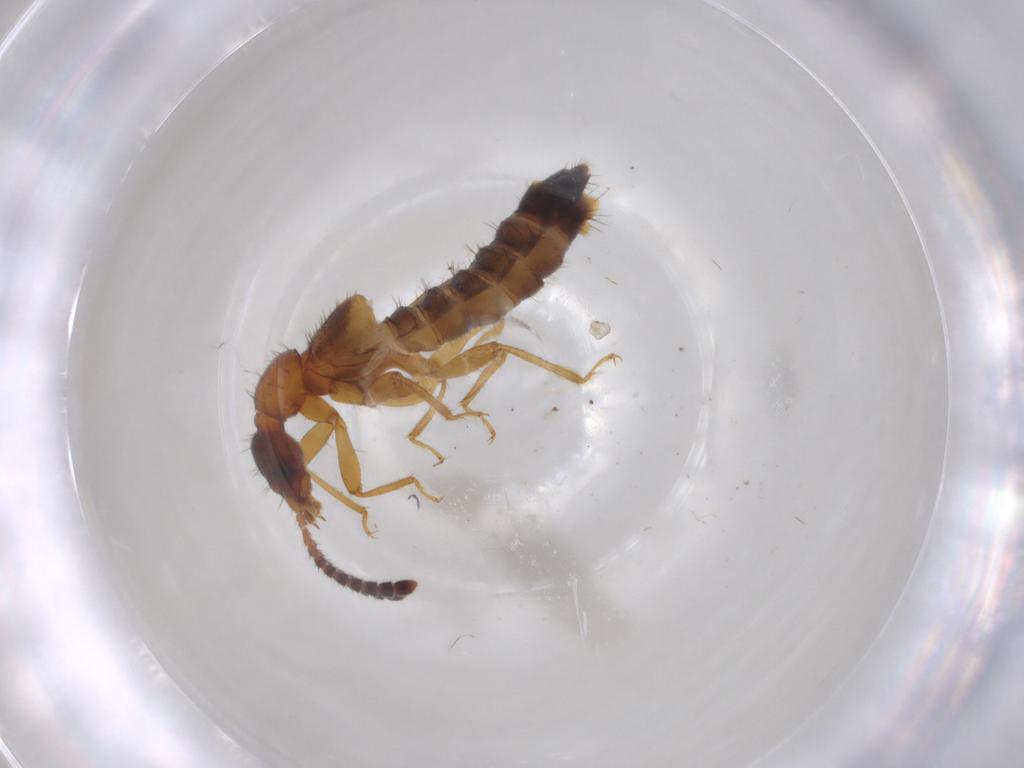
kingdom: Animalia
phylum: Arthropoda
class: Insecta
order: Coleoptera
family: Staphylinidae
